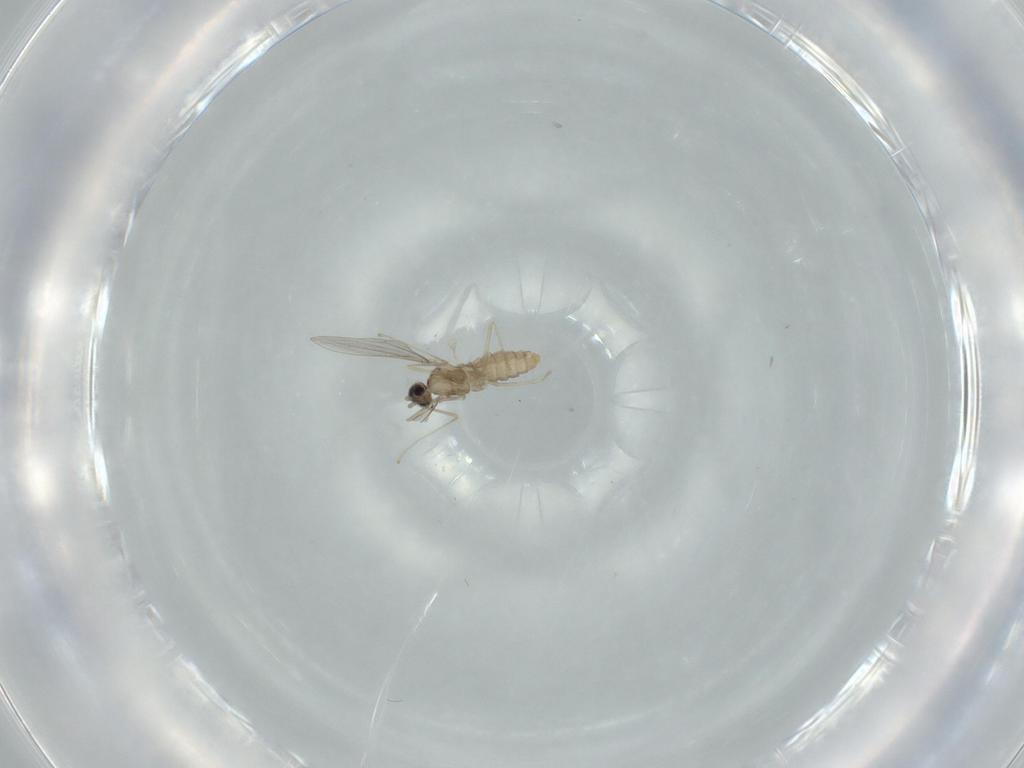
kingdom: Animalia
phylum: Arthropoda
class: Insecta
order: Diptera
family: Cecidomyiidae
